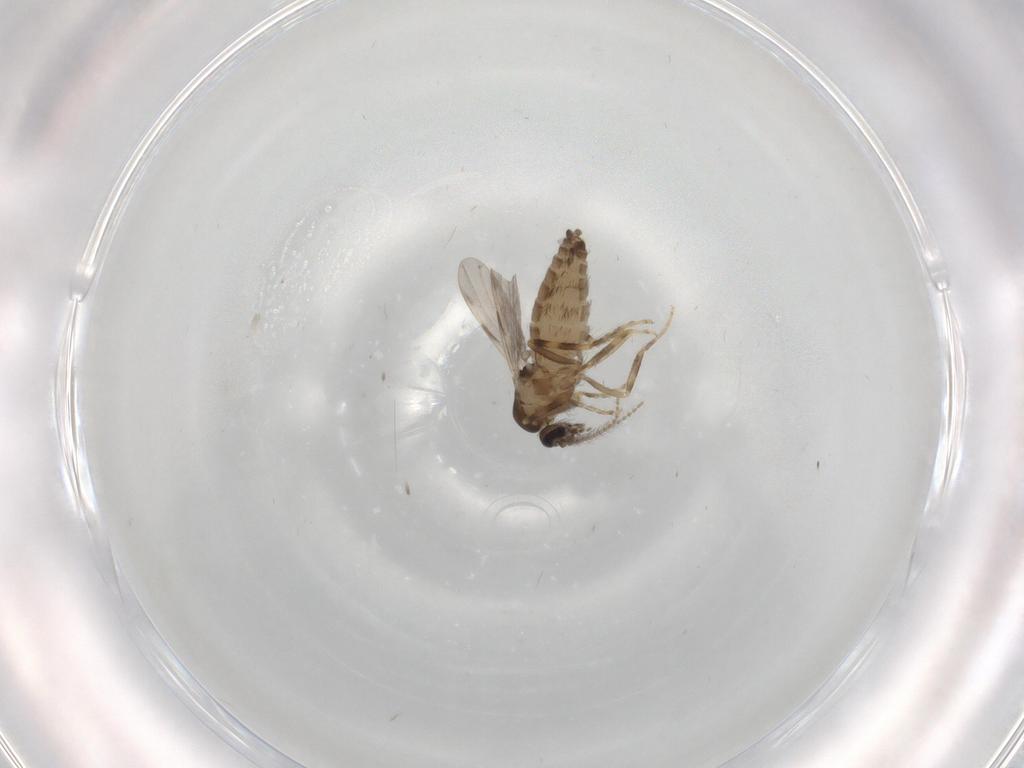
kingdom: Animalia
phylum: Arthropoda
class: Insecta
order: Diptera
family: Ceratopogonidae
